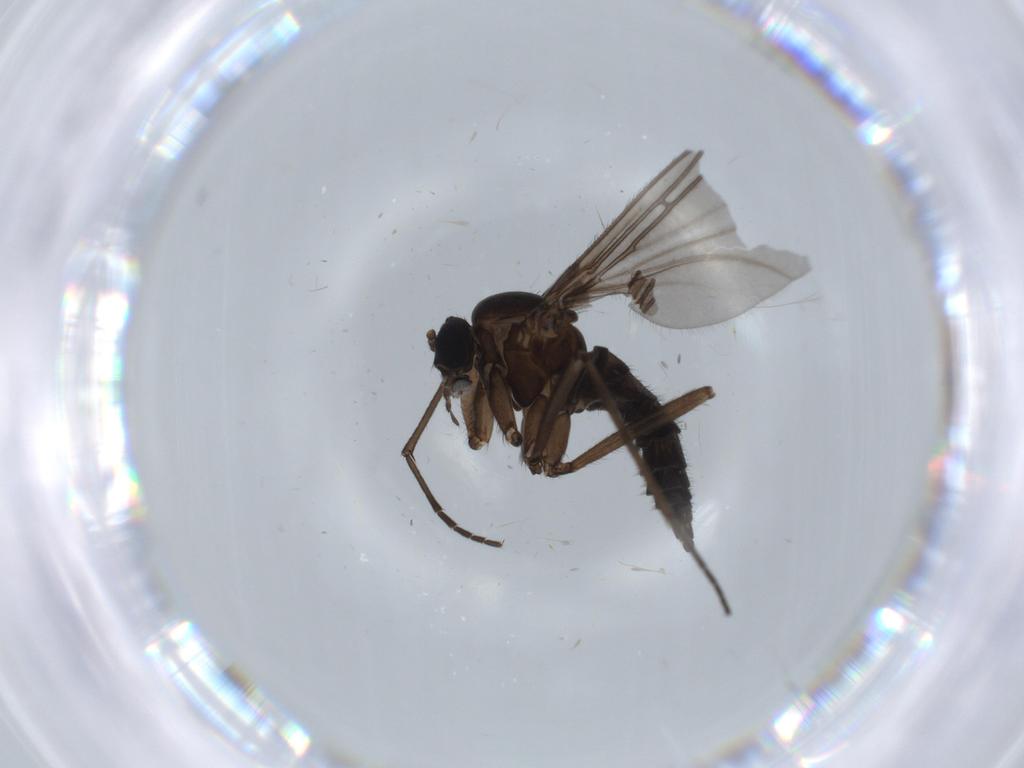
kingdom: Animalia
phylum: Arthropoda
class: Insecta
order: Diptera
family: Sciaridae
